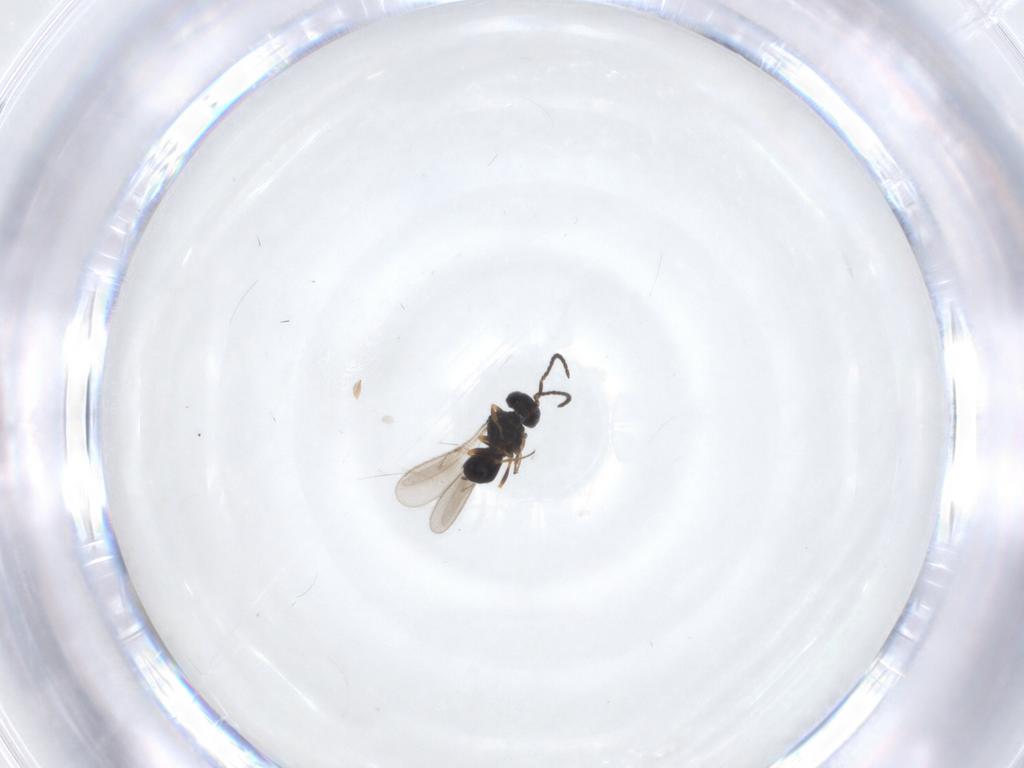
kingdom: Animalia
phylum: Arthropoda
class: Insecta
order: Hymenoptera
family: Scelionidae
